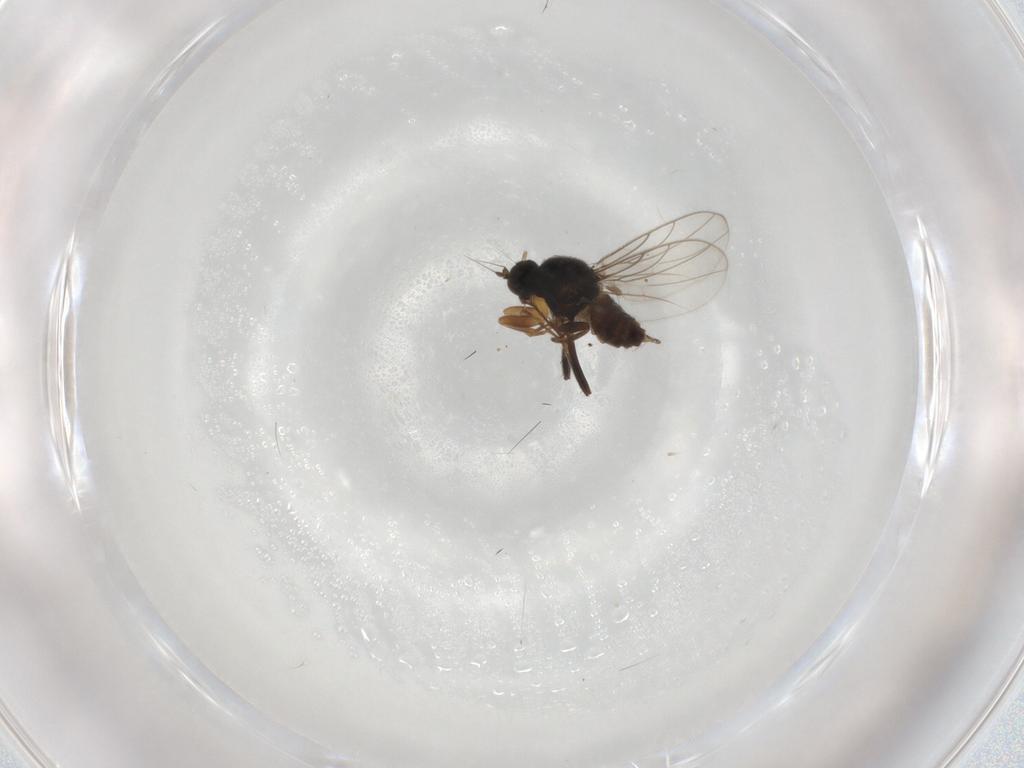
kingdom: Animalia
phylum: Arthropoda
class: Insecta
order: Diptera
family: Hybotidae
